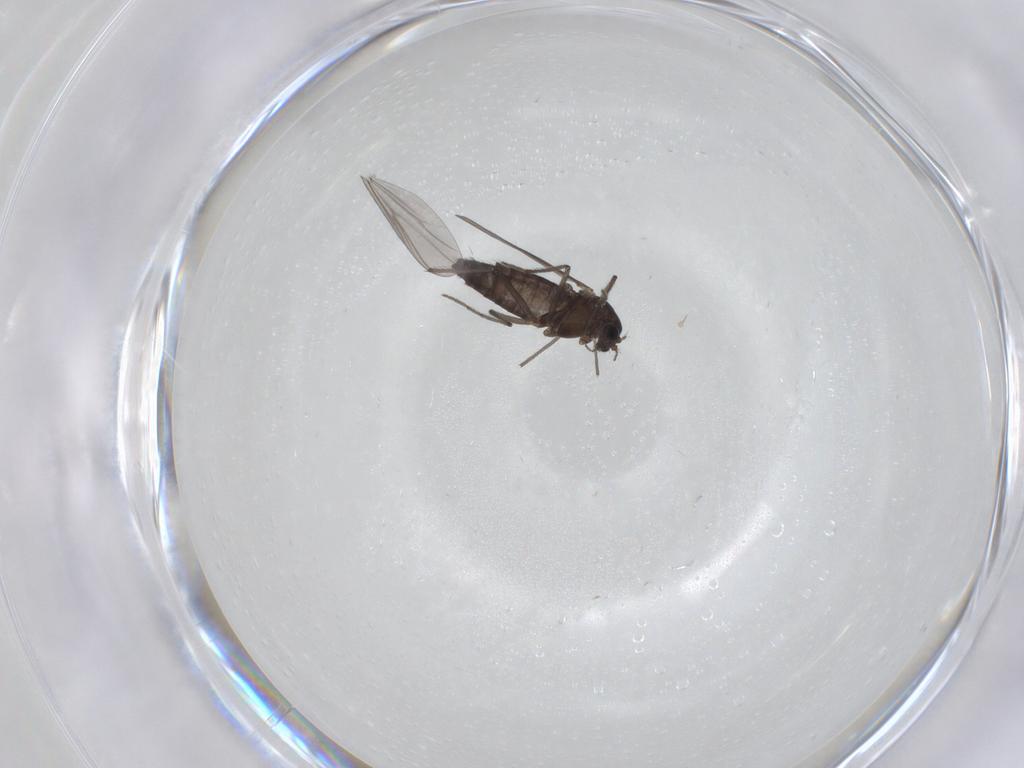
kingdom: Animalia
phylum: Arthropoda
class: Insecta
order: Diptera
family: Chironomidae
